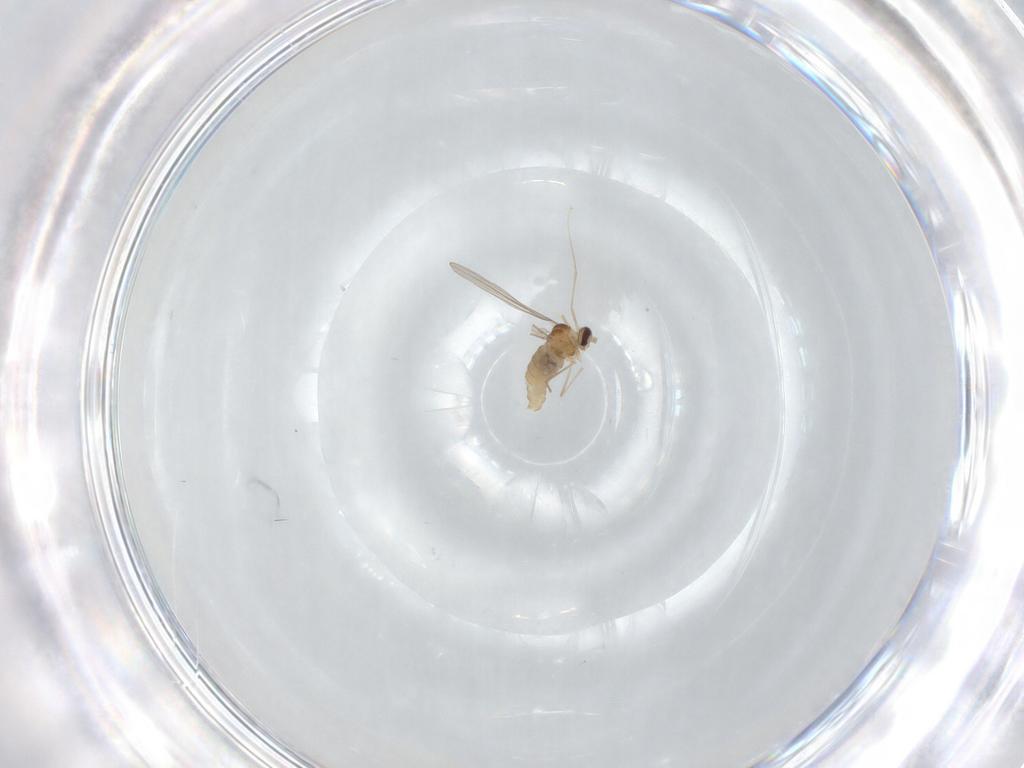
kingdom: Animalia
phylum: Arthropoda
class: Insecta
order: Diptera
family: Cecidomyiidae
